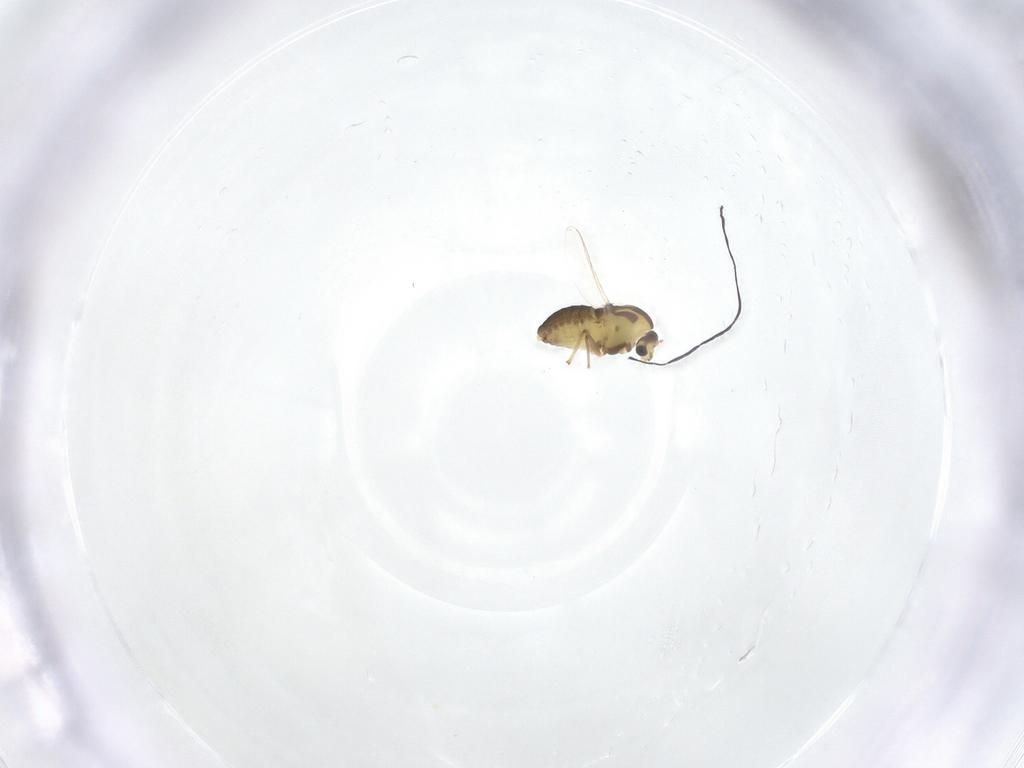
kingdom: Animalia
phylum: Arthropoda
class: Insecta
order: Diptera
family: Chironomidae
